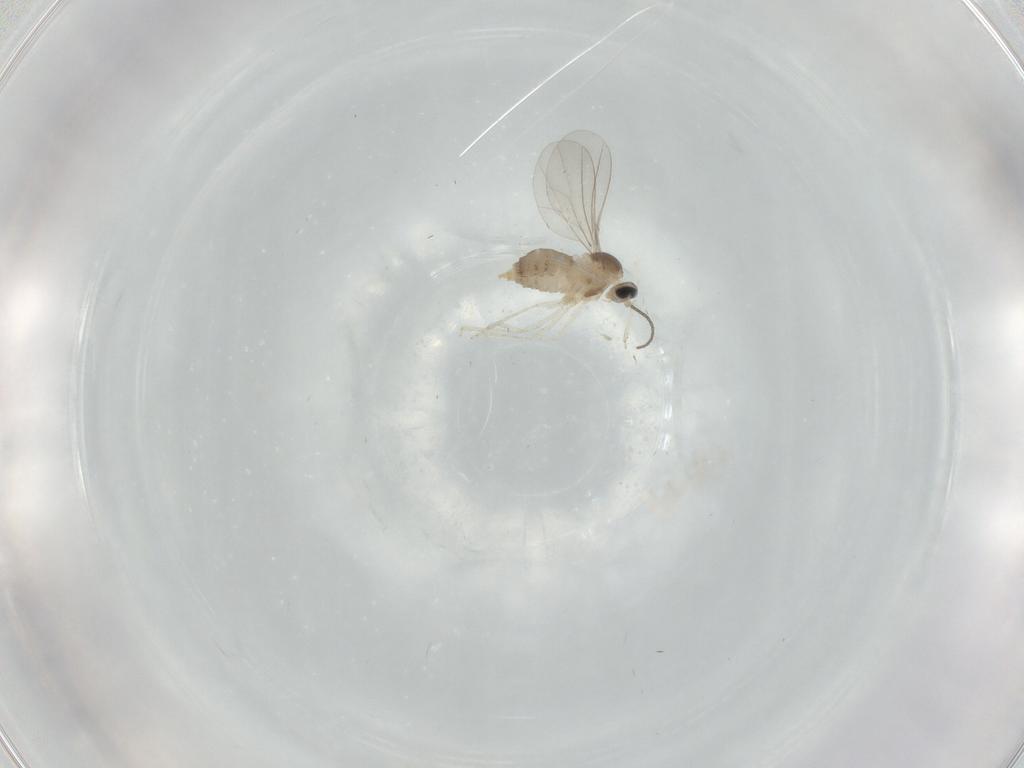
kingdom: Animalia
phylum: Arthropoda
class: Insecta
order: Diptera
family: Cecidomyiidae
